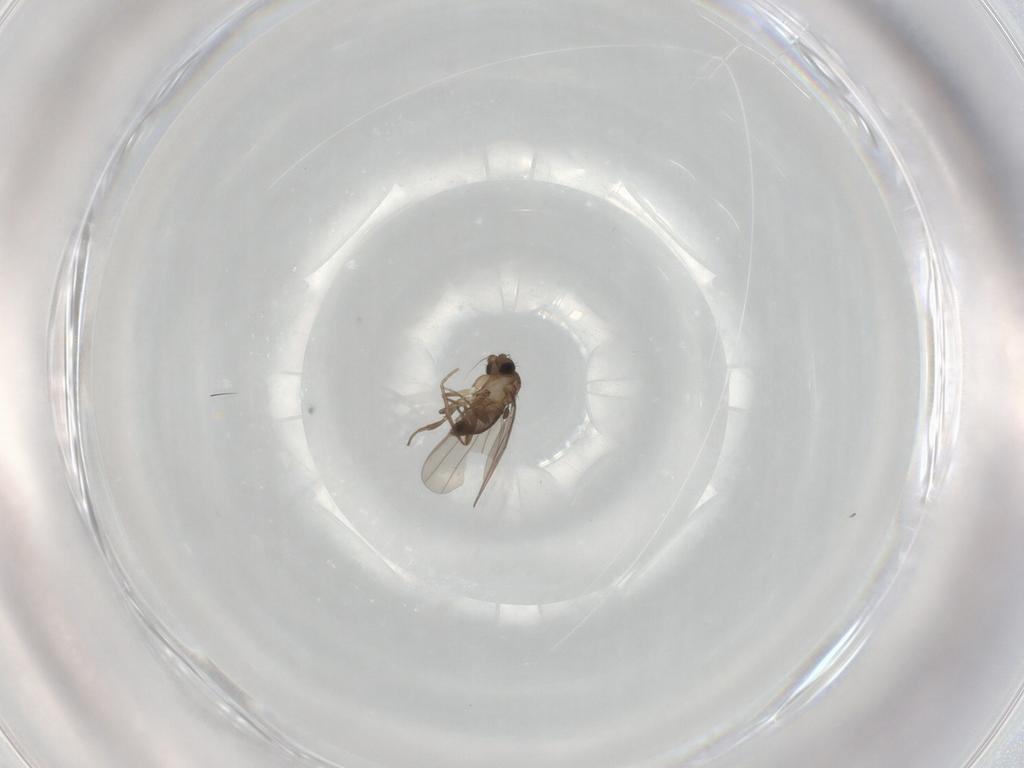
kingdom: Animalia
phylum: Arthropoda
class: Insecta
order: Diptera
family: Phoridae
